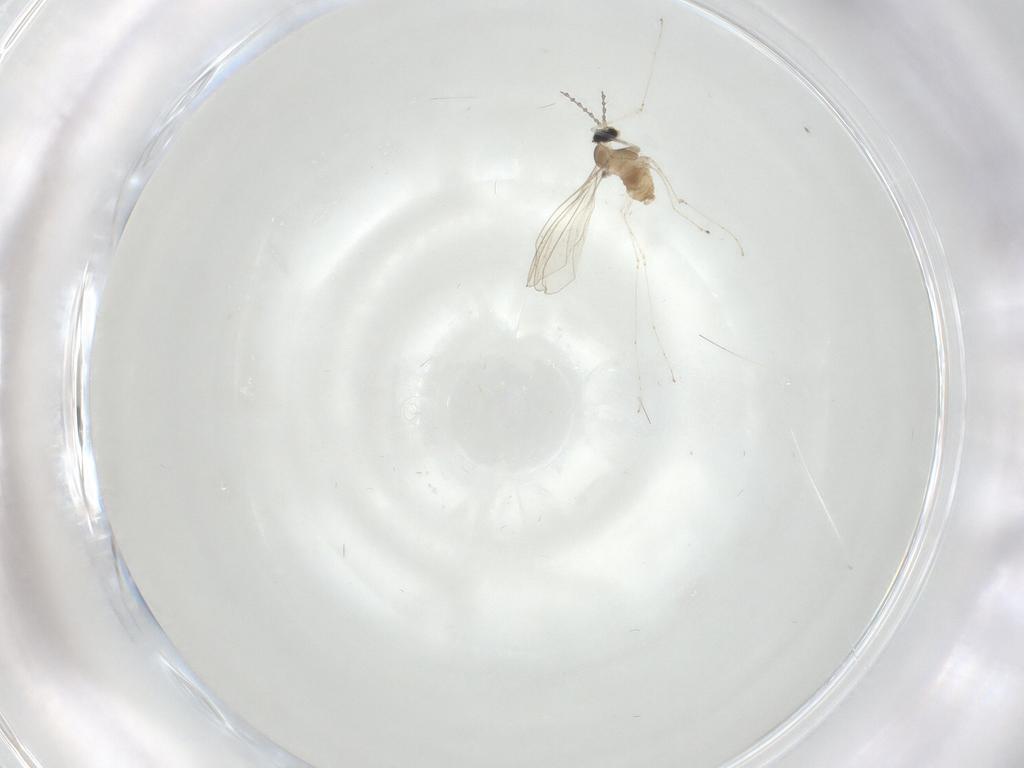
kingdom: Animalia
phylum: Arthropoda
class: Insecta
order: Diptera
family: Cecidomyiidae
